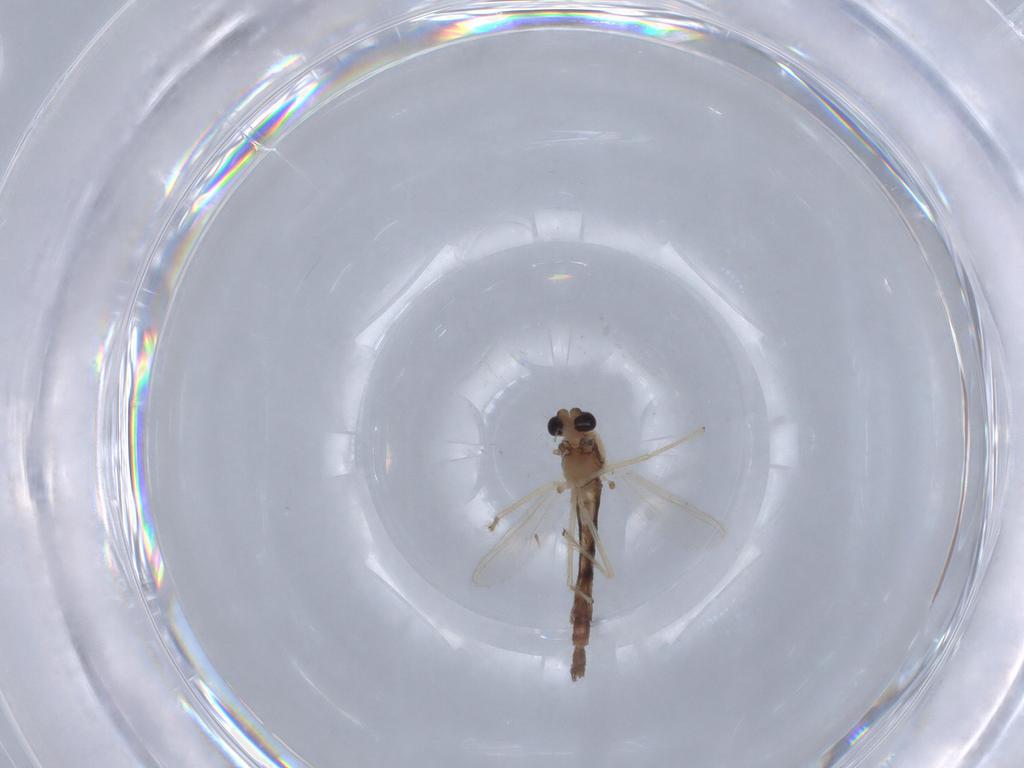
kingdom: Animalia
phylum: Arthropoda
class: Insecta
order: Diptera
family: Chironomidae
